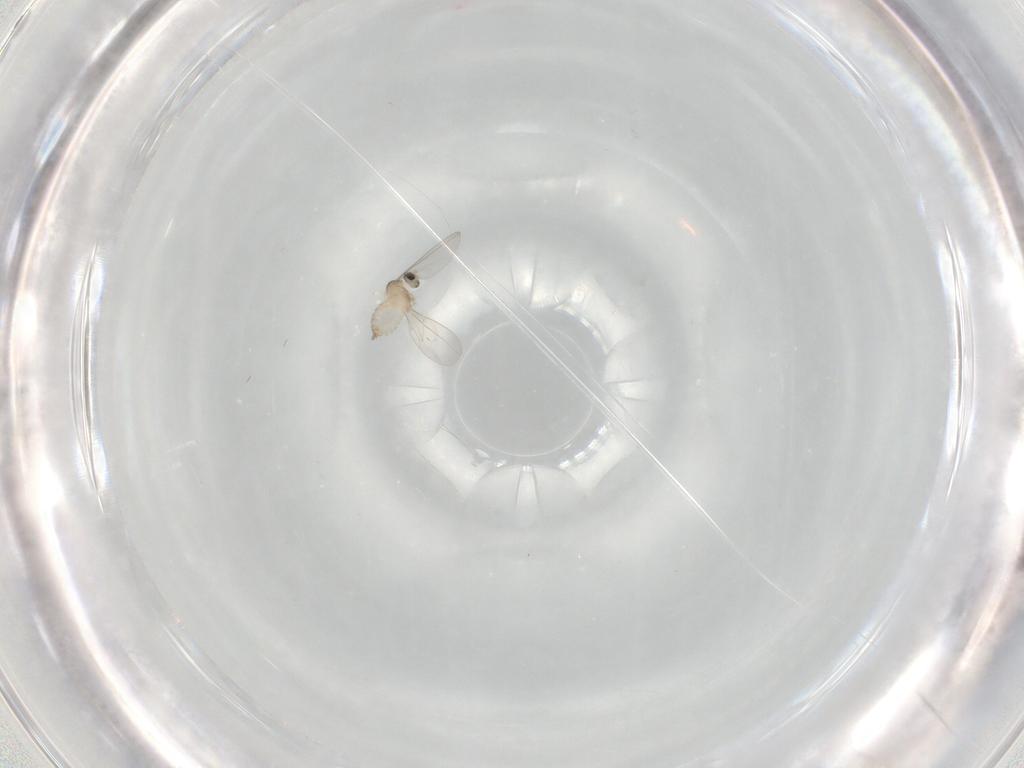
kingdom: Animalia
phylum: Arthropoda
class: Insecta
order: Diptera
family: Cecidomyiidae
